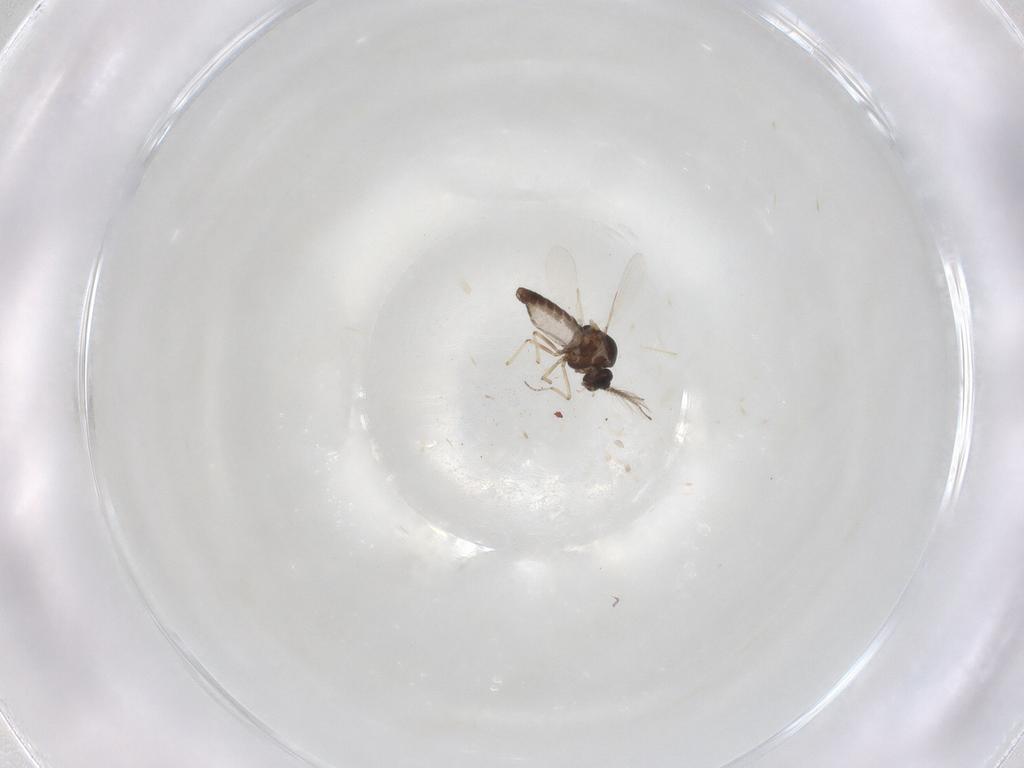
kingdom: Animalia
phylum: Arthropoda
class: Insecta
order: Diptera
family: Ceratopogonidae
